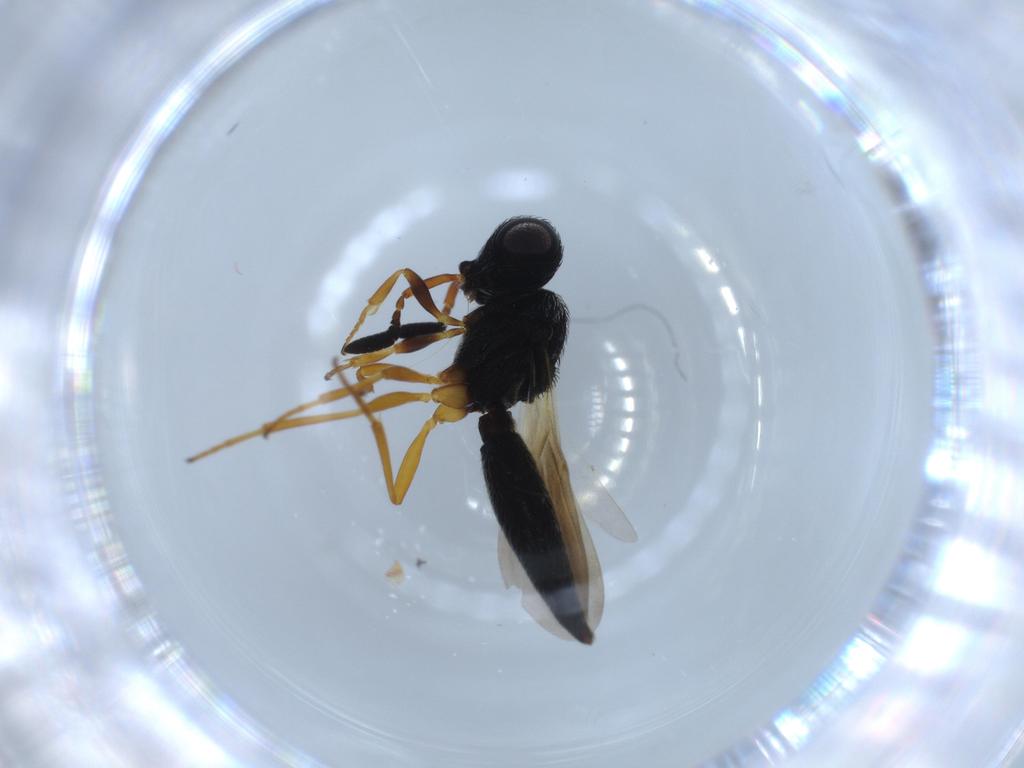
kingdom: Animalia
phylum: Arthropoda
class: Insecta
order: Hymenoptera
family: Scelionidae
